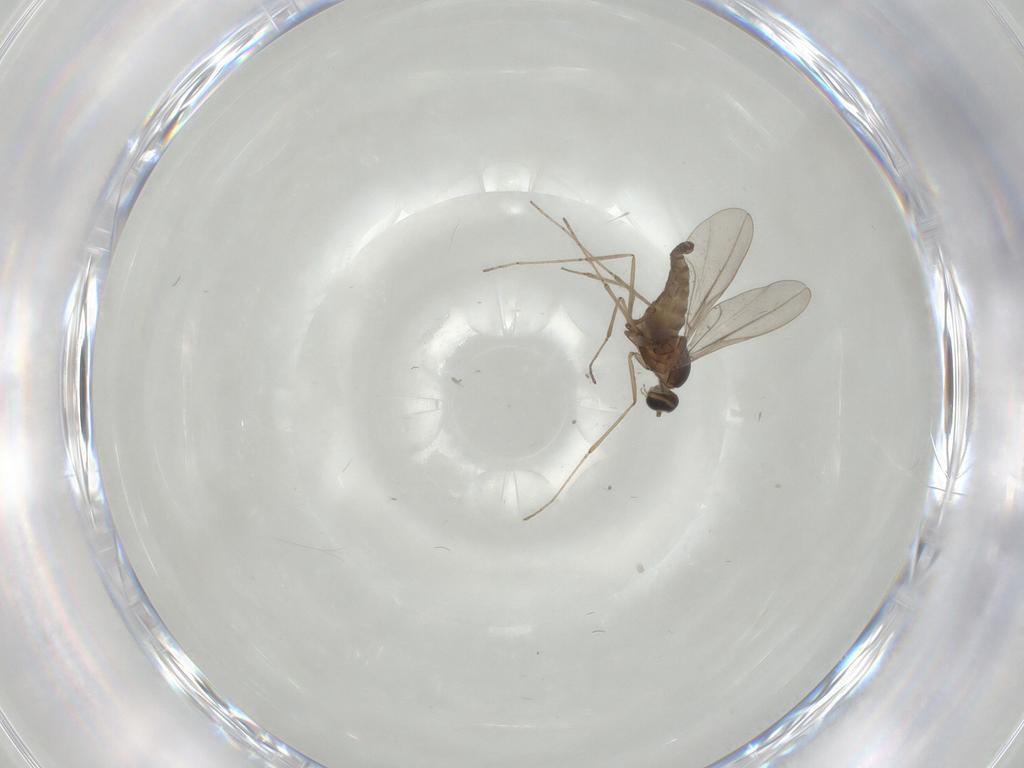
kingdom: Animalia
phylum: Arthropoda
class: Insecta
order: Diptera
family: Cecidomyiidae
